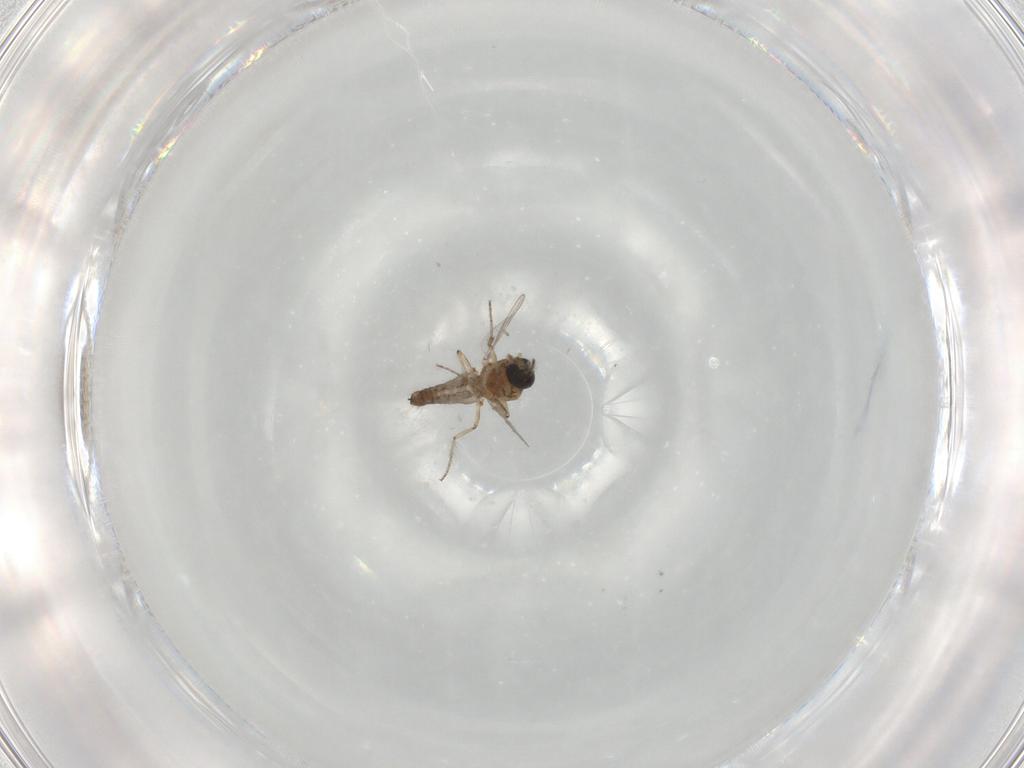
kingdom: Animalia
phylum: Arthropoda
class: Insecta
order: Diptera
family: Ceratopogonidae
